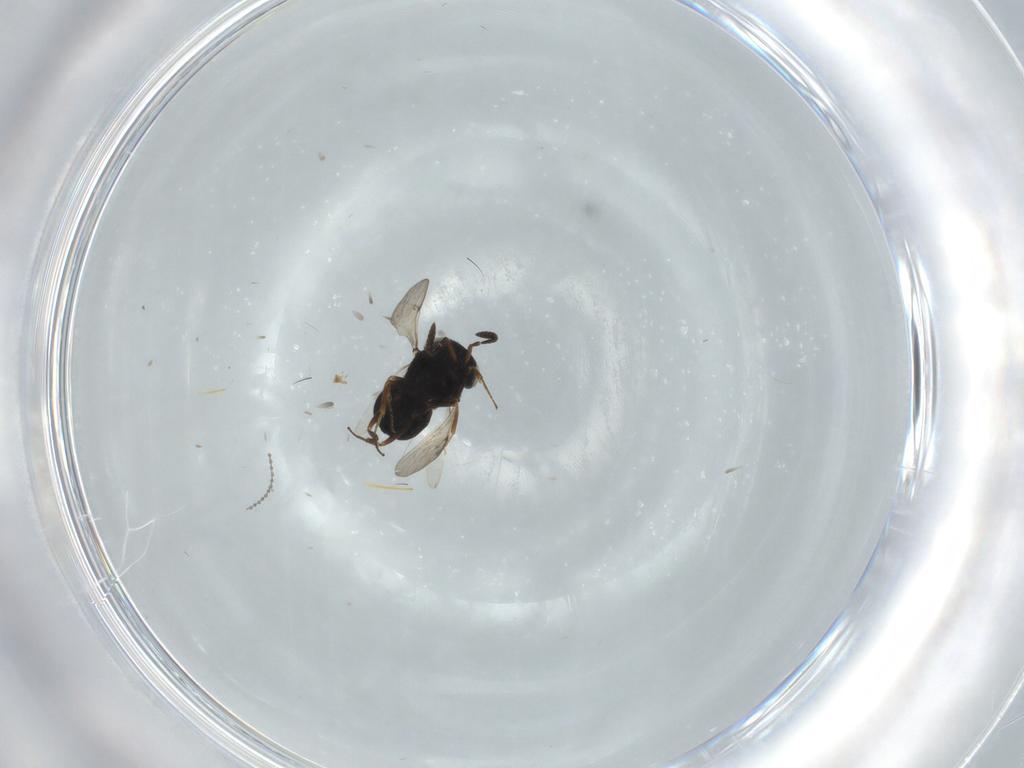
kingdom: Animalia
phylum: Arthropoda
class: Insecta
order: Hymenoptera
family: Scelionidae
